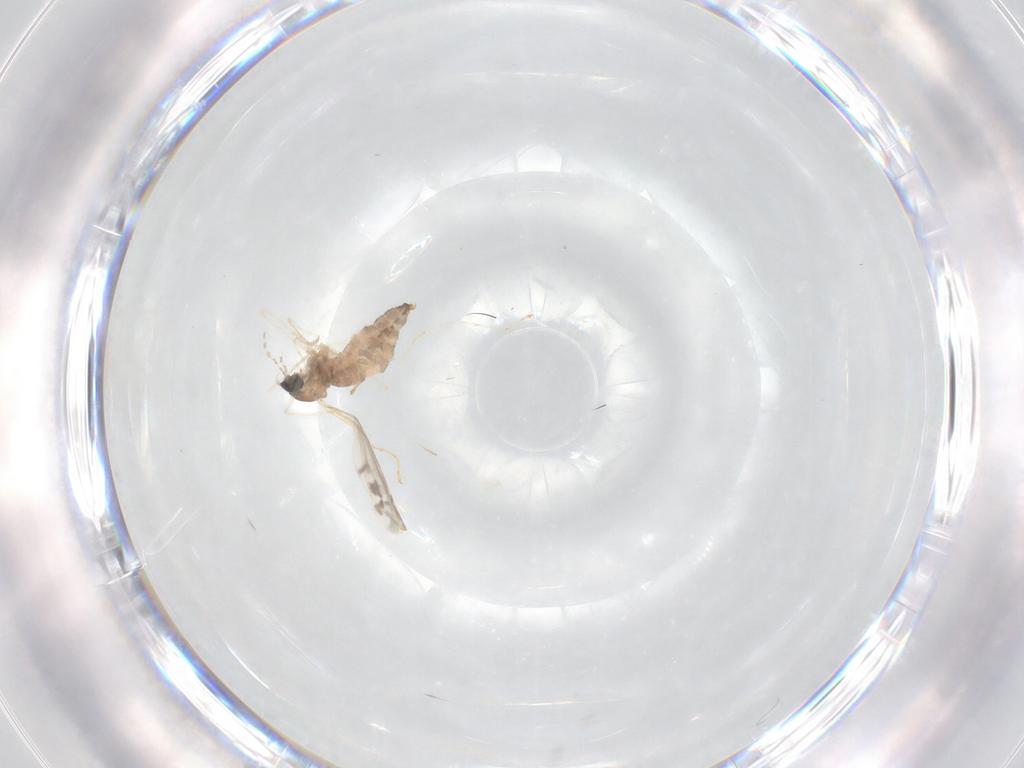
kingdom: Animalia
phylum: Arthropoda
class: Insecta
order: Diptera
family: Cecidomyiidae
